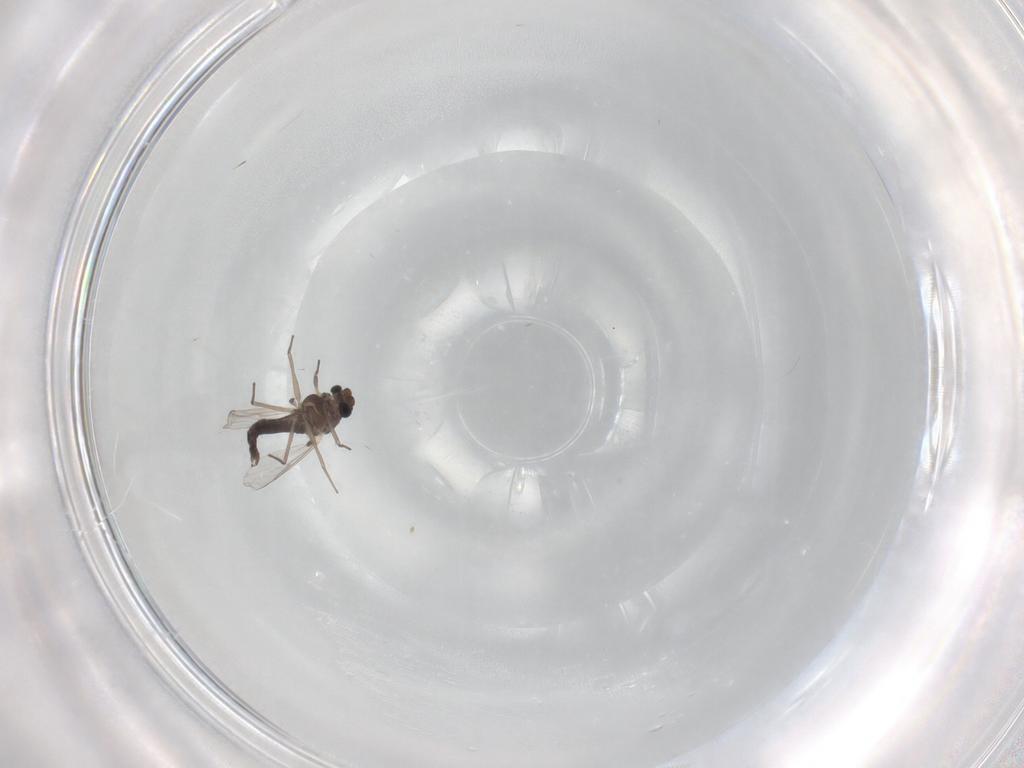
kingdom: Animalia
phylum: Arthropoda
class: Insecta
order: Diptera
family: Chironomidae
